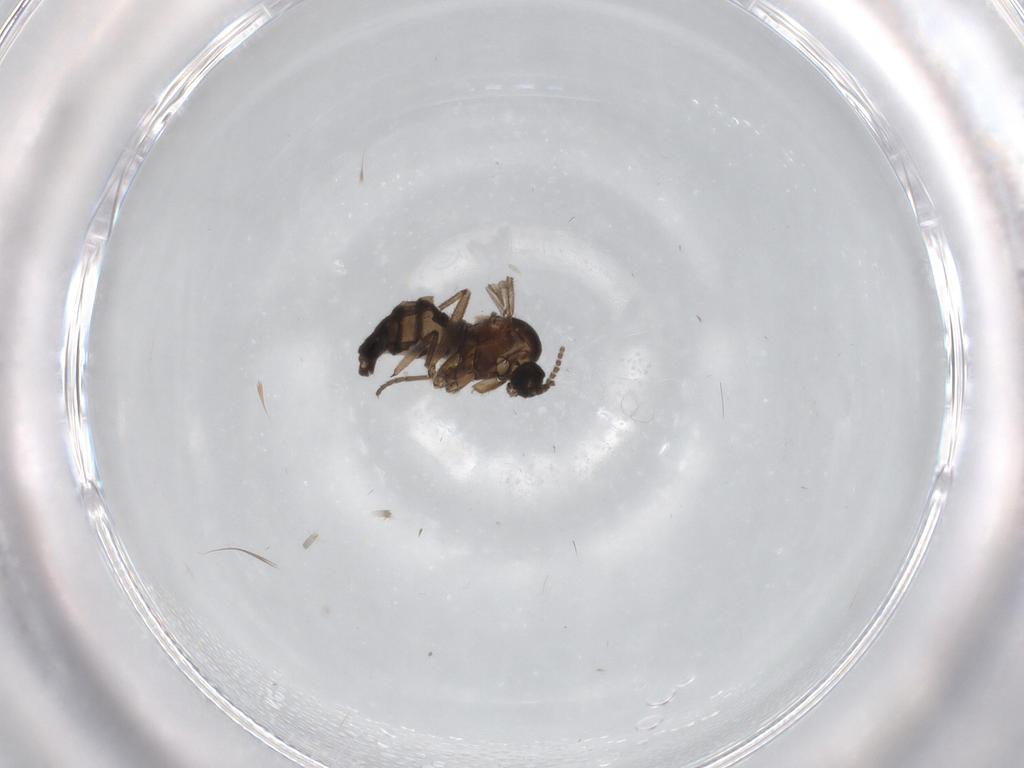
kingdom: Animalia
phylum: Arthropoda
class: Insecta
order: Diptera
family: Sciaridae
